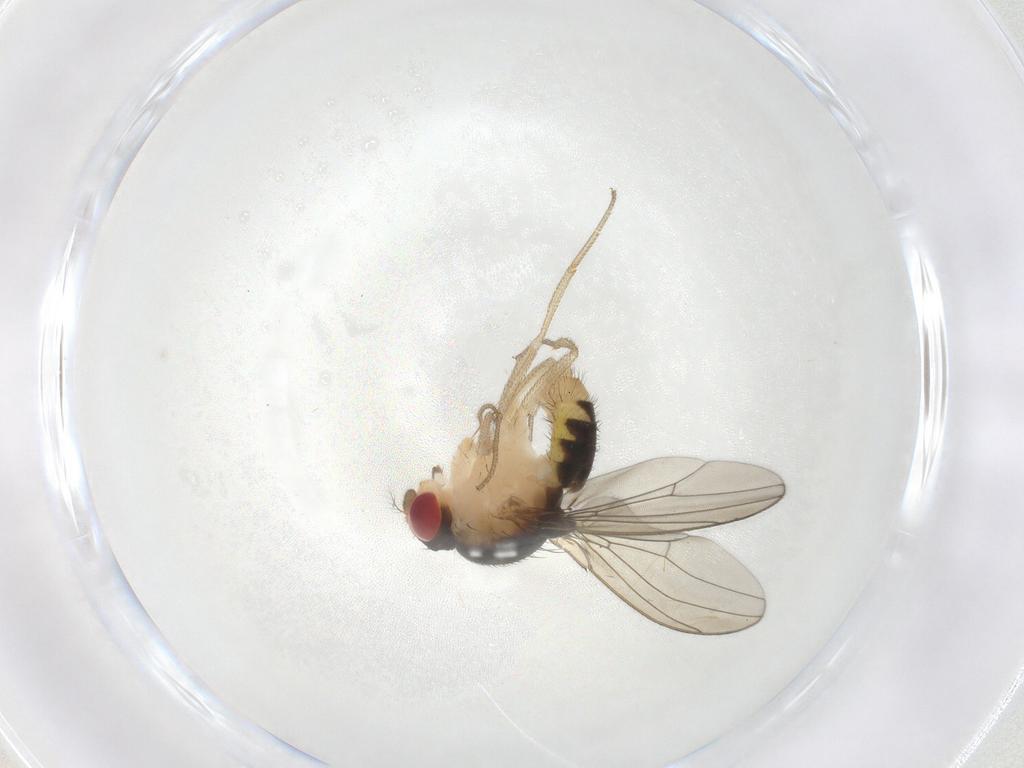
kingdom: Animalia
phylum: Arthropoda
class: Insecta
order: Diptera
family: Drosophilidae
